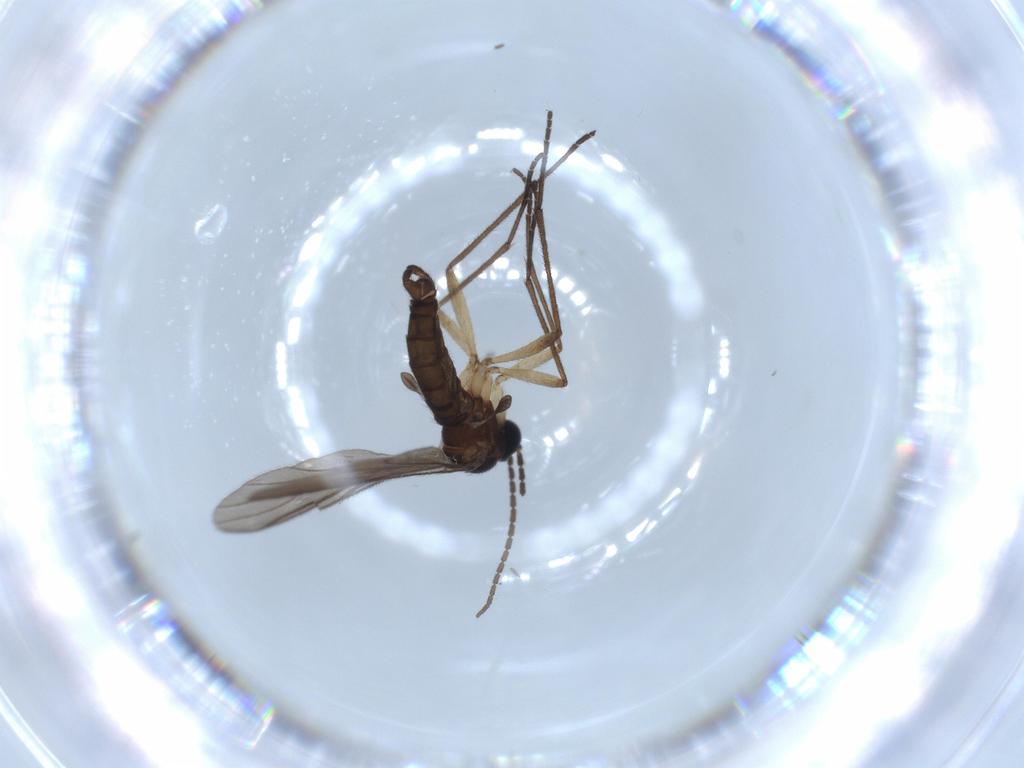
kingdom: Animalia
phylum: Arthropoda
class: Insecta
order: Diptera
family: Sciaridae
